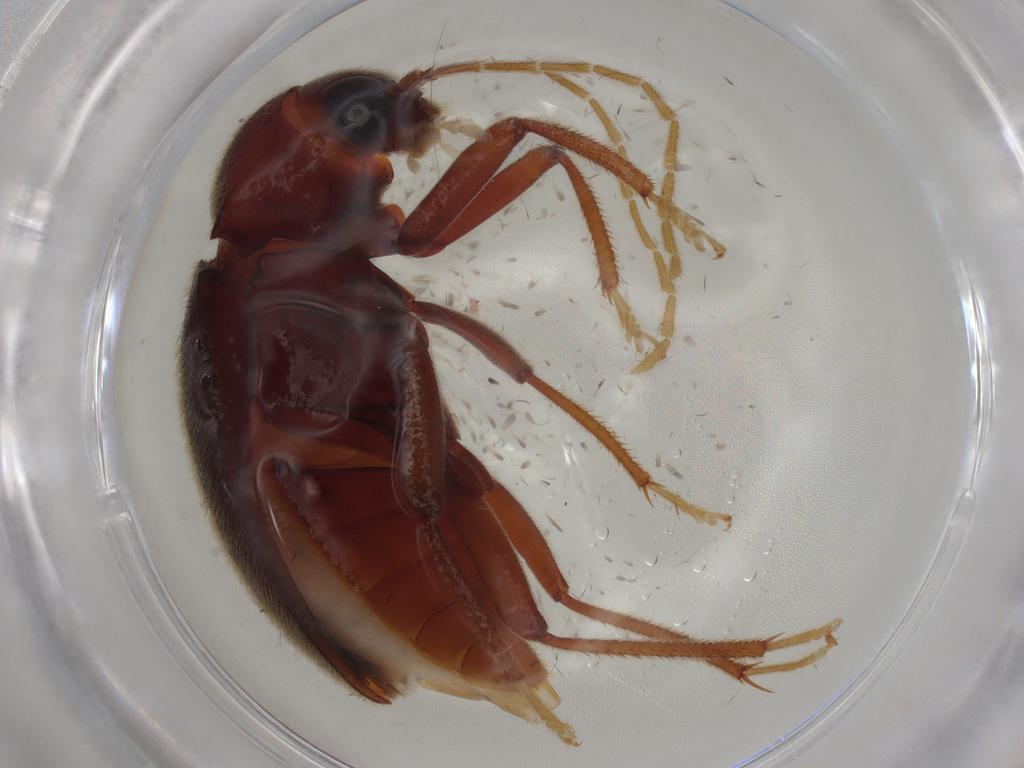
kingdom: Animalia
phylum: Arthropoda
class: Insecta
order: Coleoptera
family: Ptilodactylidae
